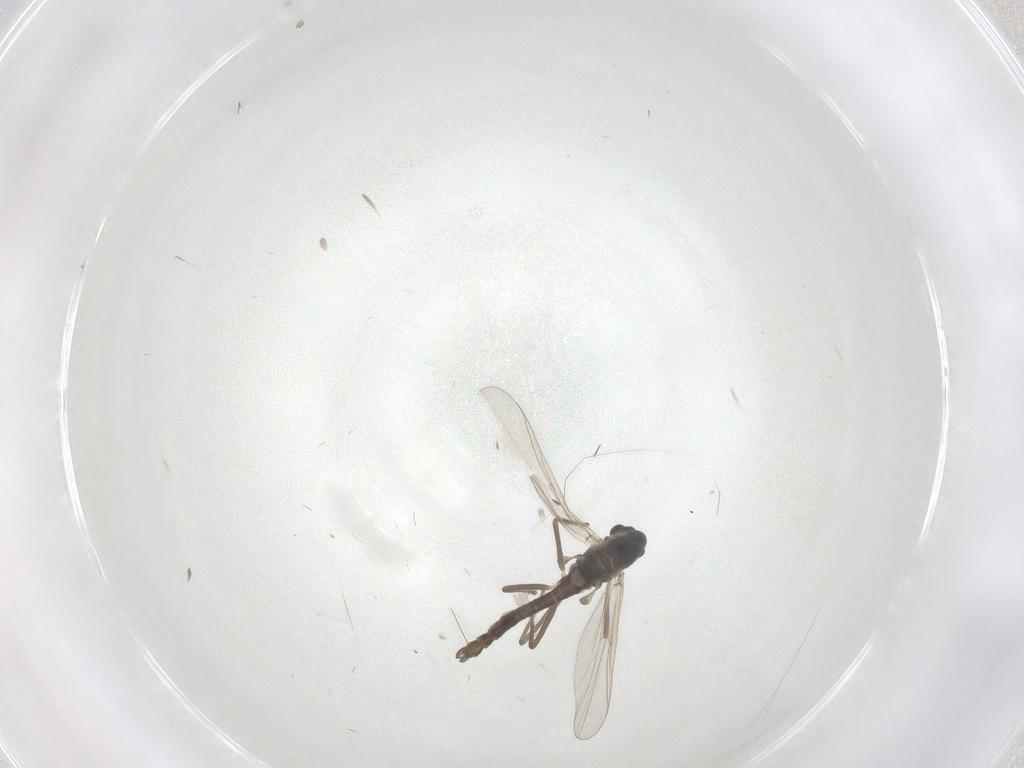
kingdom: Animalia
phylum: Arthropoda
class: Insecta
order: Diptera
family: Chironomidae
